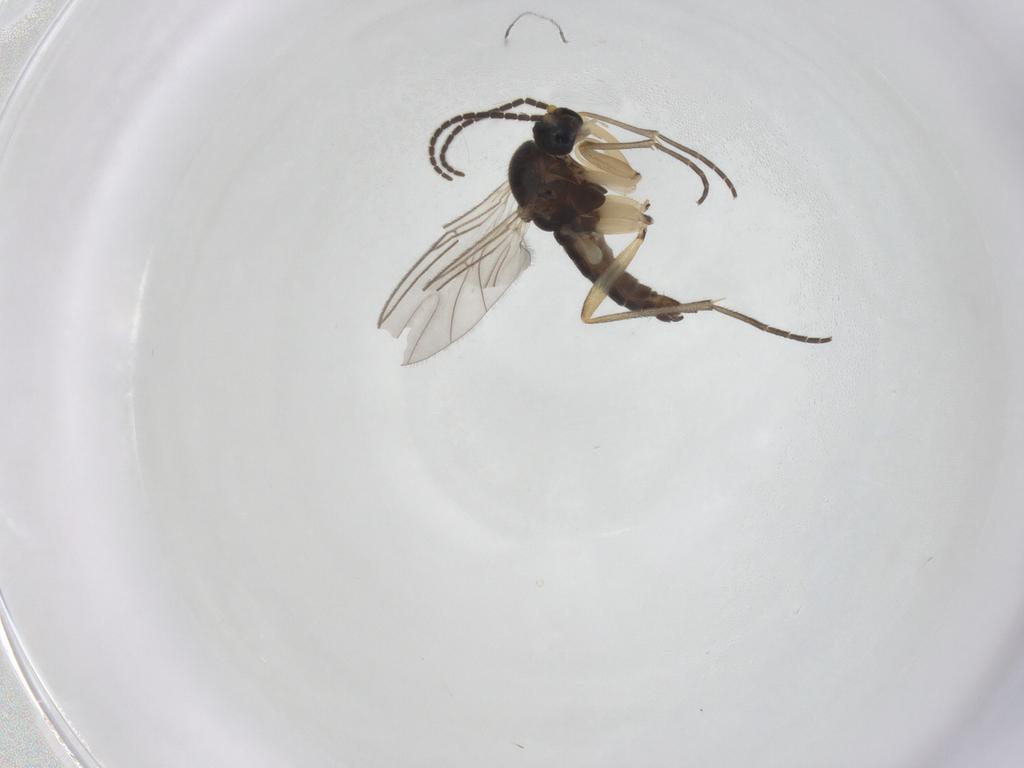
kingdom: Animalia
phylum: Arthropoda
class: Insecta
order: Diptera
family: Sciaridae
